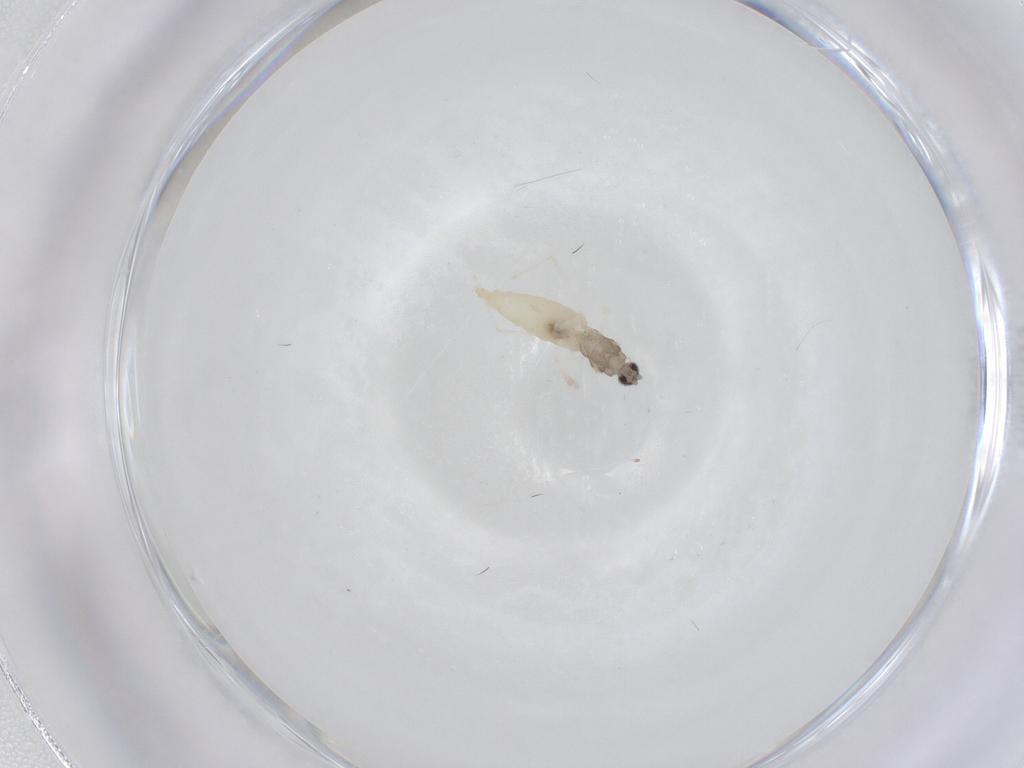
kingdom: Animalia
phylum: Arthropoda
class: Insecta
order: Diptera
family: Cecidomyiidae
